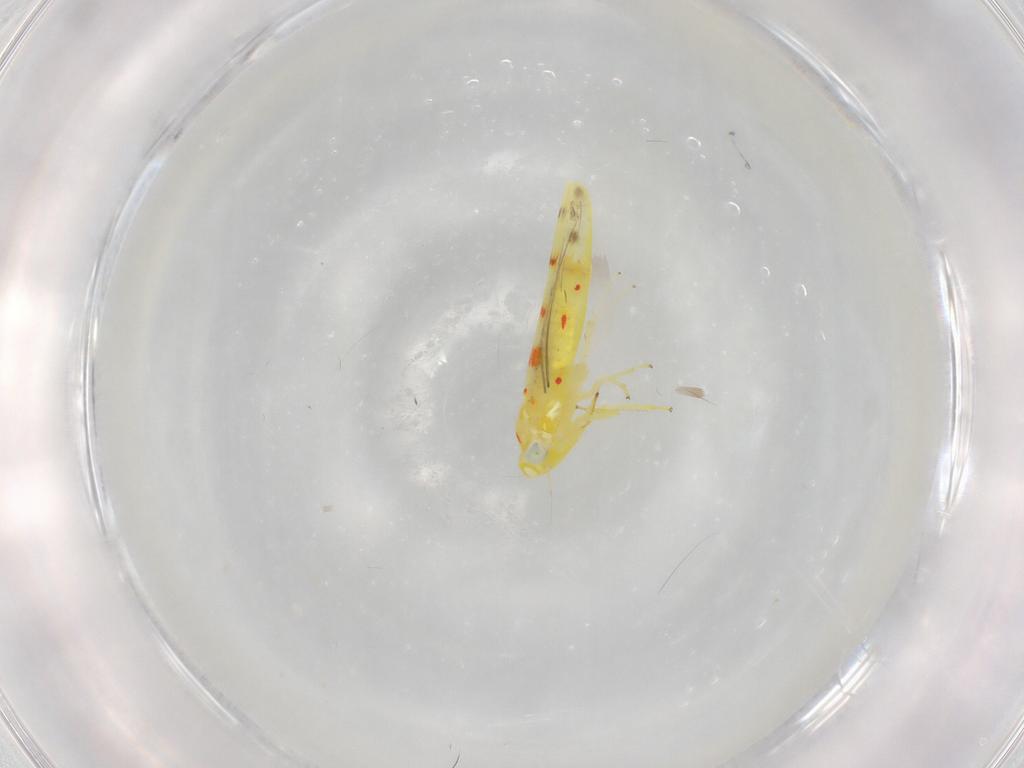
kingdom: Animalia
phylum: Arthropoda
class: Insecta
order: Hemiptera
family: Cicadellidae
